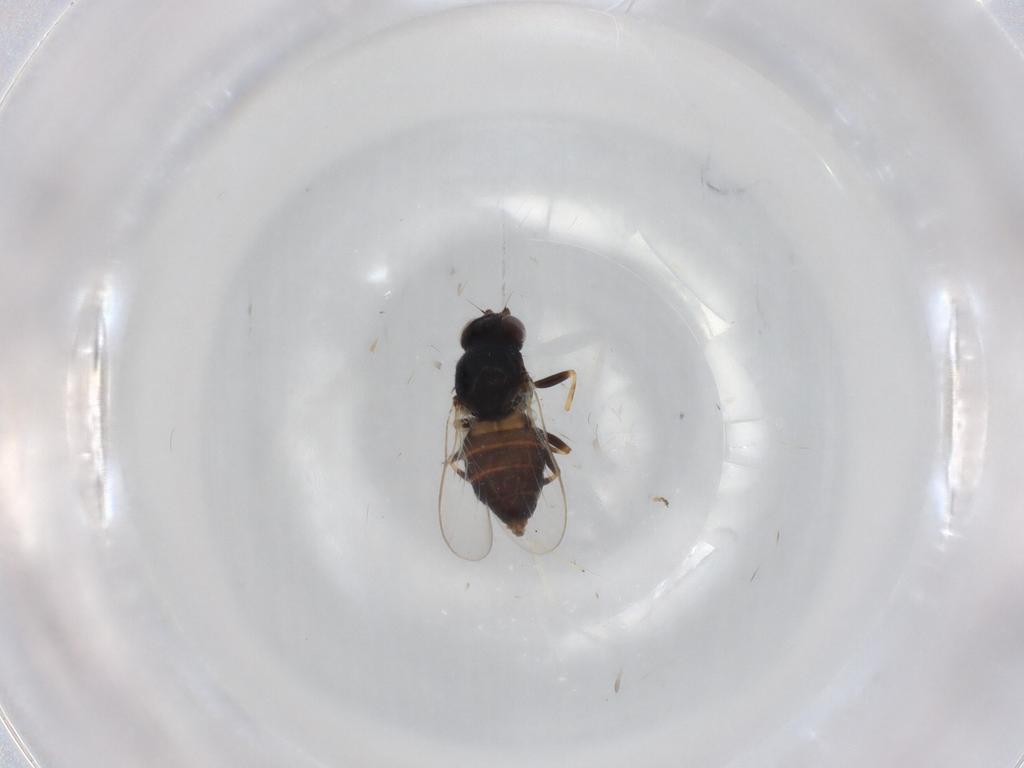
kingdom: Animalia
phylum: Arthropoda
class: Insecta
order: Diptera
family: Chloropidae
